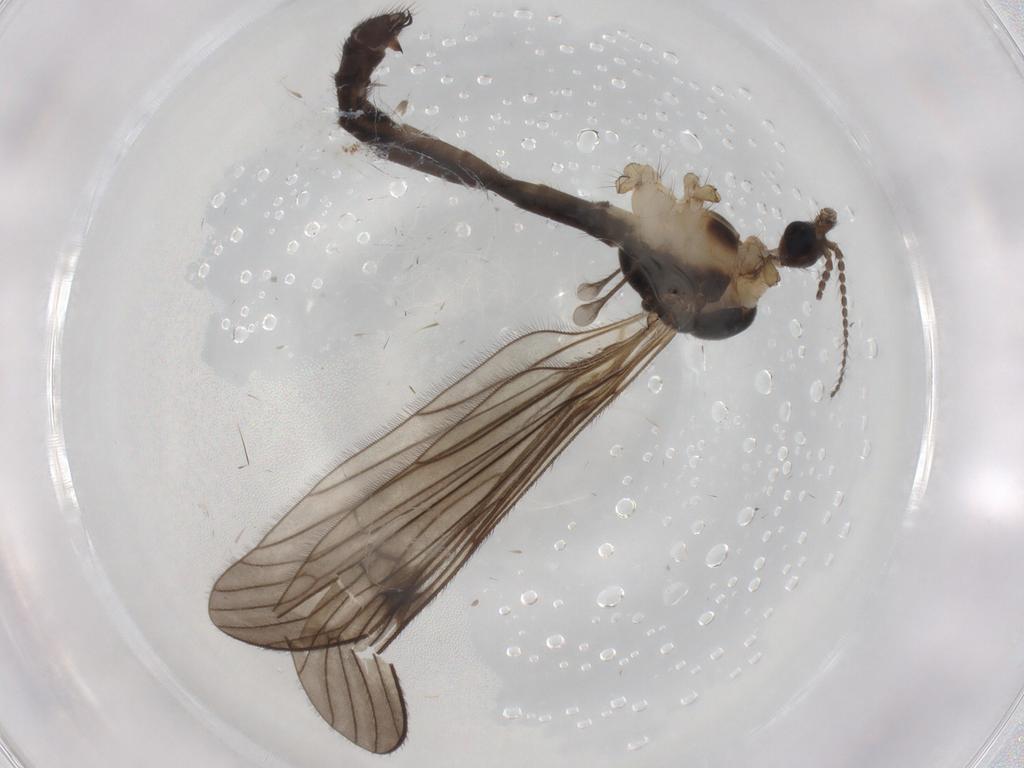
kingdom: Animalia
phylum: Arthropoda
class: Insecta
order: Diptera
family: Limoniidae
